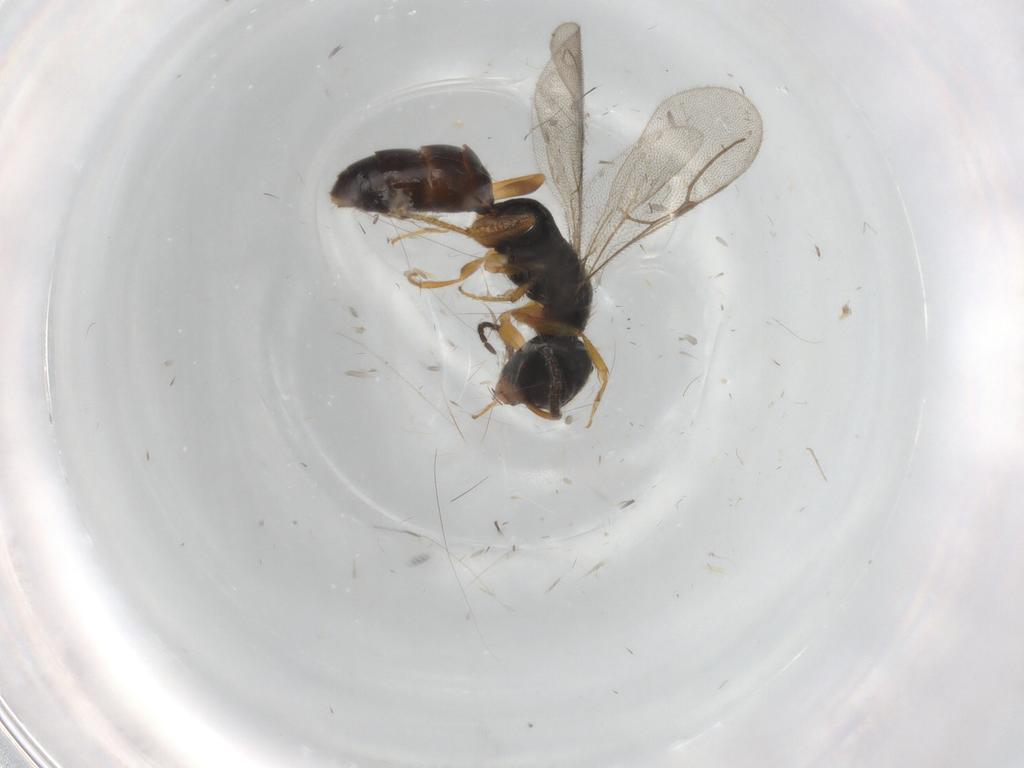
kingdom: Animalia
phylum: Arthropoda
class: Insecta
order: Hymenoptera
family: Bethylidae
